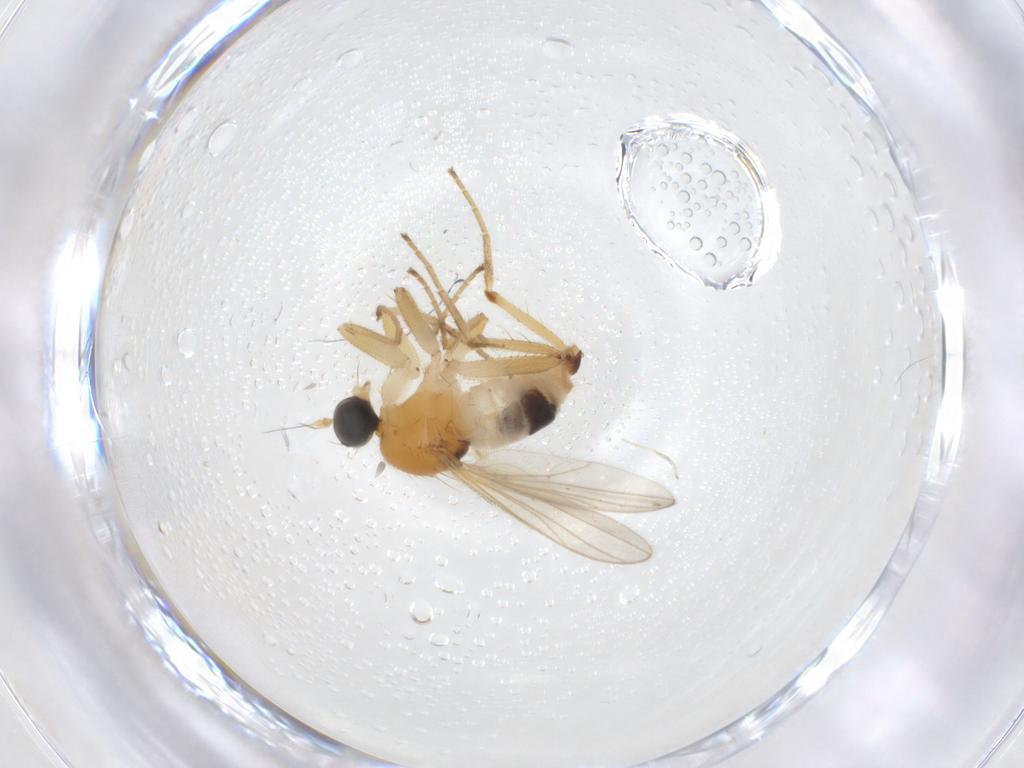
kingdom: Animalia
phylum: Arthropoda
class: Insecta
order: Diptera
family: Hybotidae
